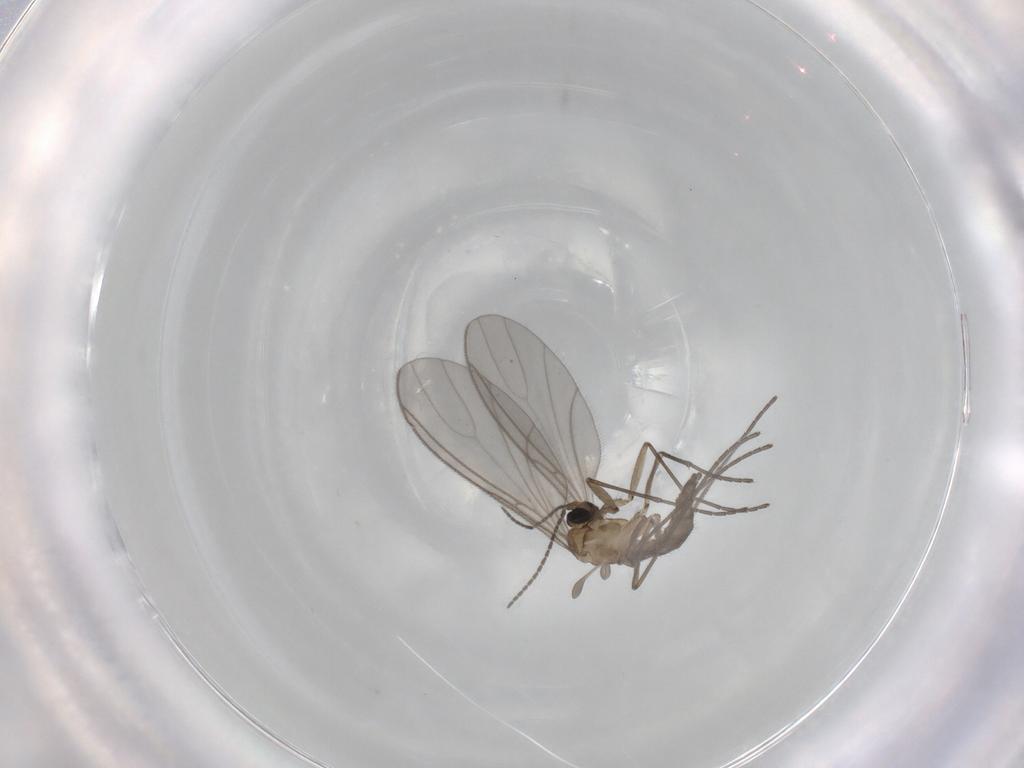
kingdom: Animalia
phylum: Arthropoda
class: Insecta
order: Diptera
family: Sciaridae
